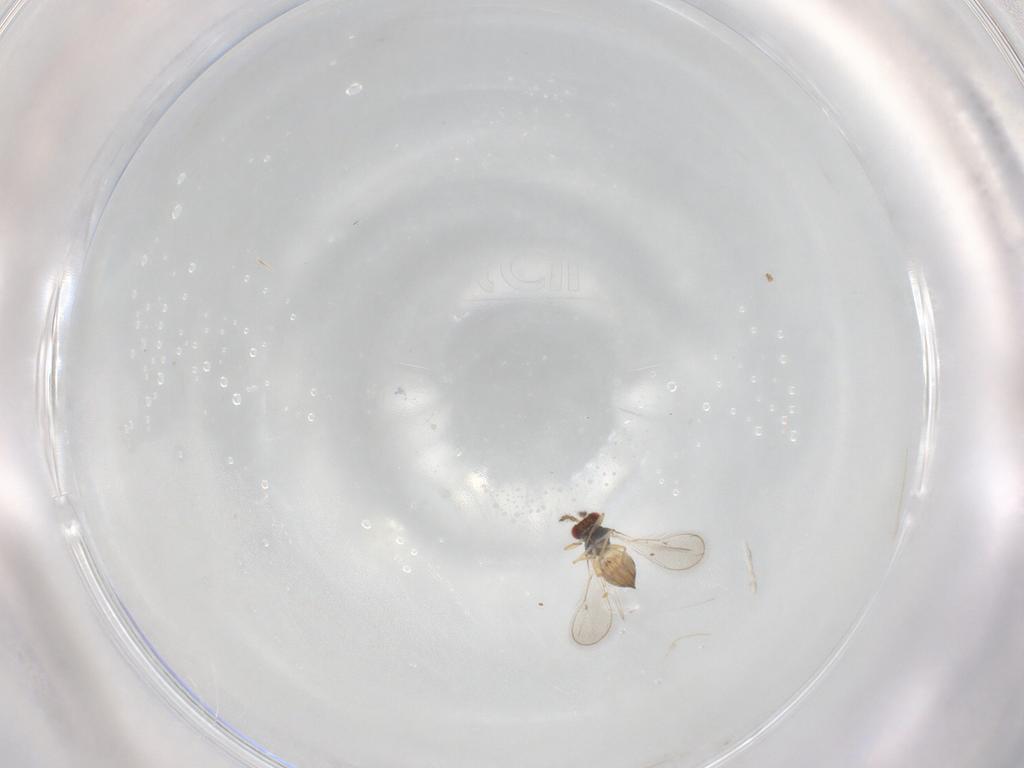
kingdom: Animalia
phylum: Arthropoda
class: Insecta
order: Hymenoptera
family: Eulophidae
